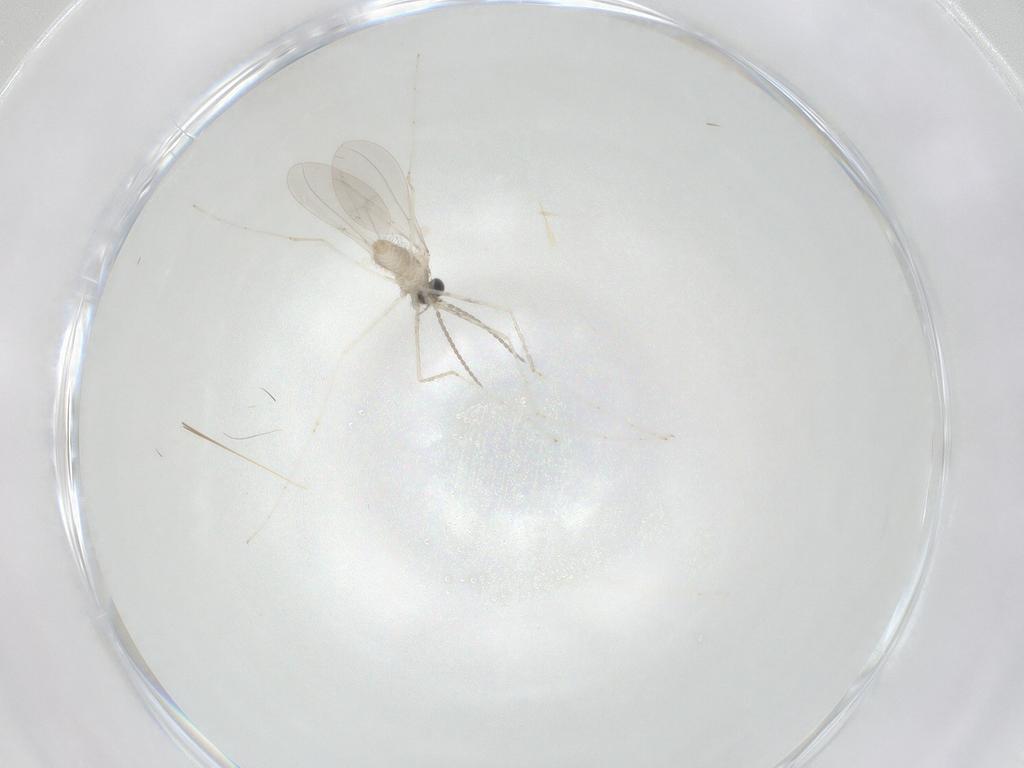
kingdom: Animalia
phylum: Arthropoda
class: Insecta
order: Diptera
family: Cecidomyiidae
